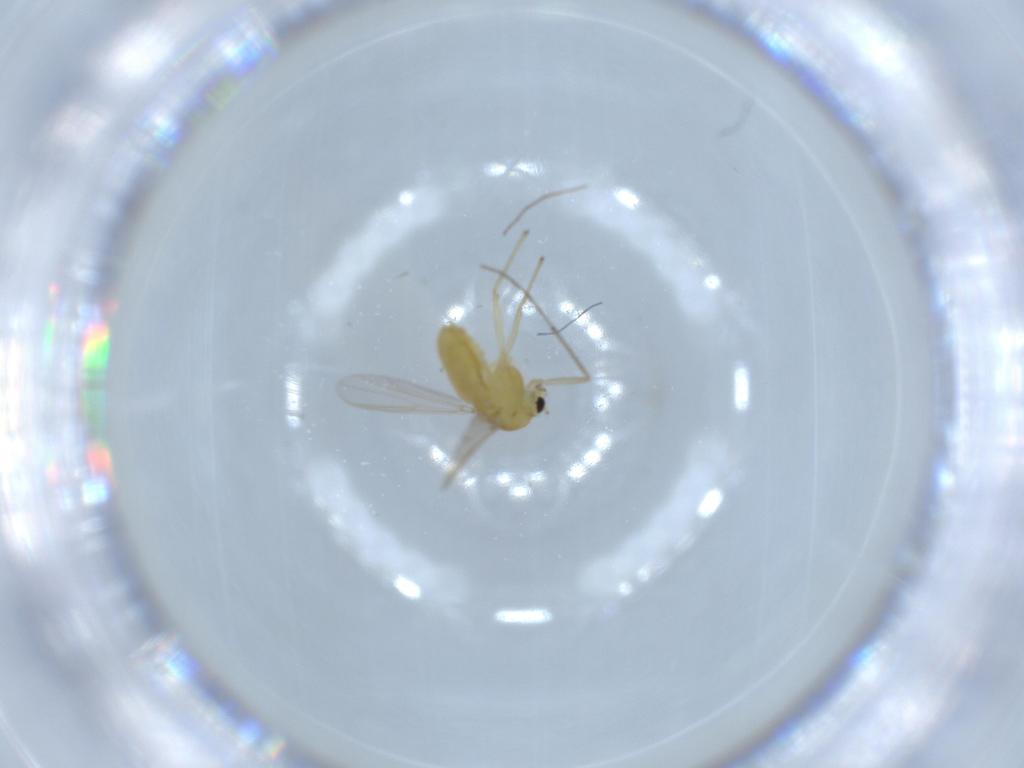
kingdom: Animalia
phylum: Arthropoda
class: Insecta
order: Diptera
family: Chironomidae
